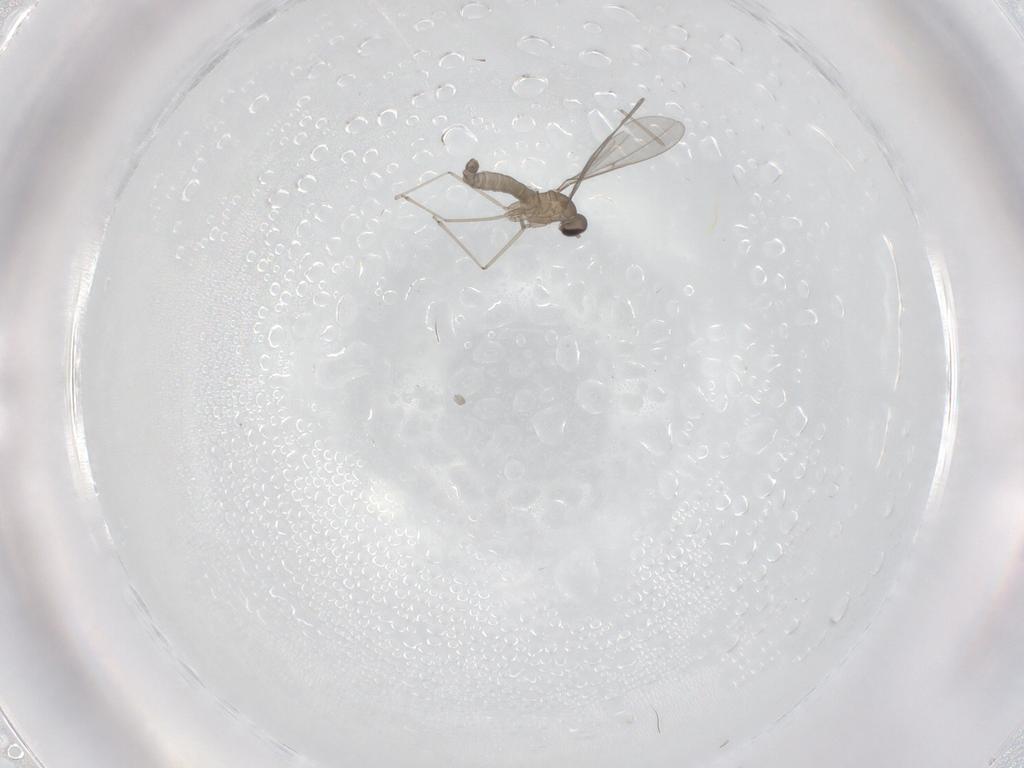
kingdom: Animalia
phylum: Arthropoda
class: Insecta
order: Diptera
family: Cecidomyiidae
